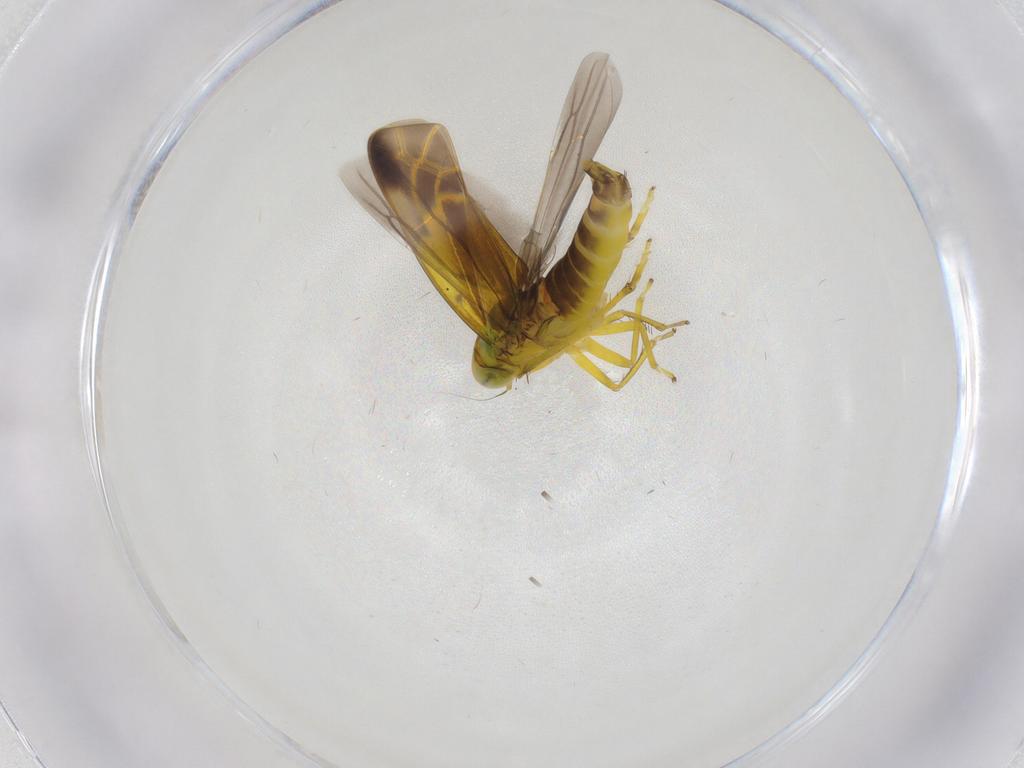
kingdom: Animalia
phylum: Arthropoda
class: Insecta
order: Hemiptera
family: Cicadellidae
